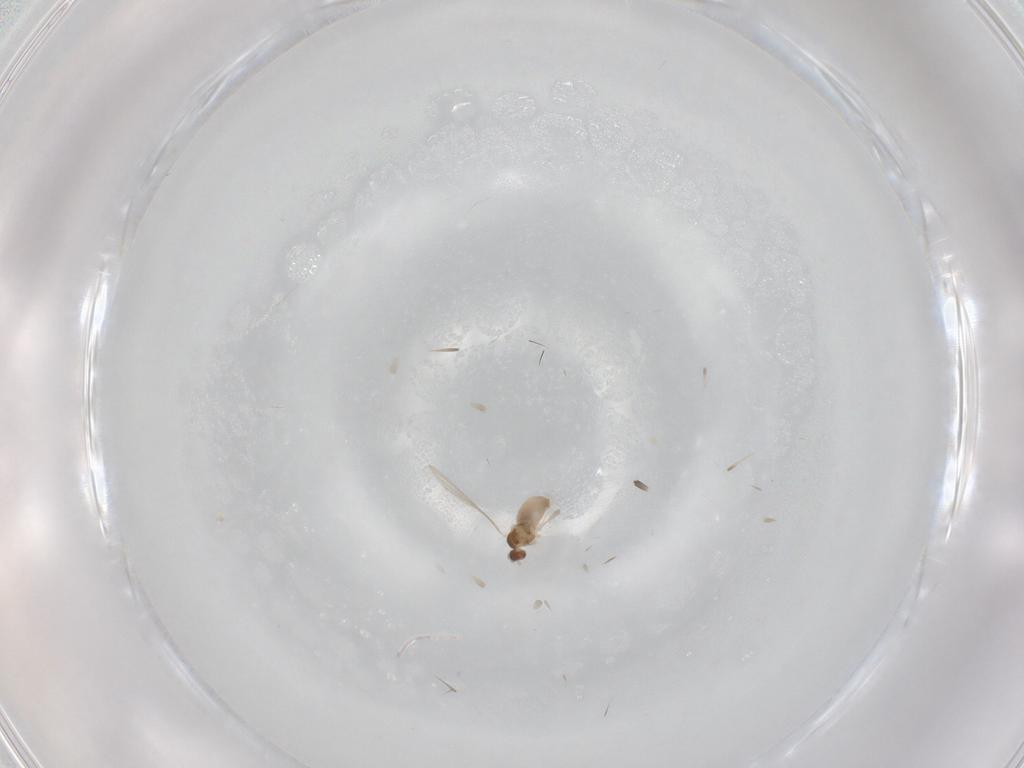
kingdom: Animalia
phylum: Arthropoda
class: Insecta
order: Diptera
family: Cecidomyiidae
